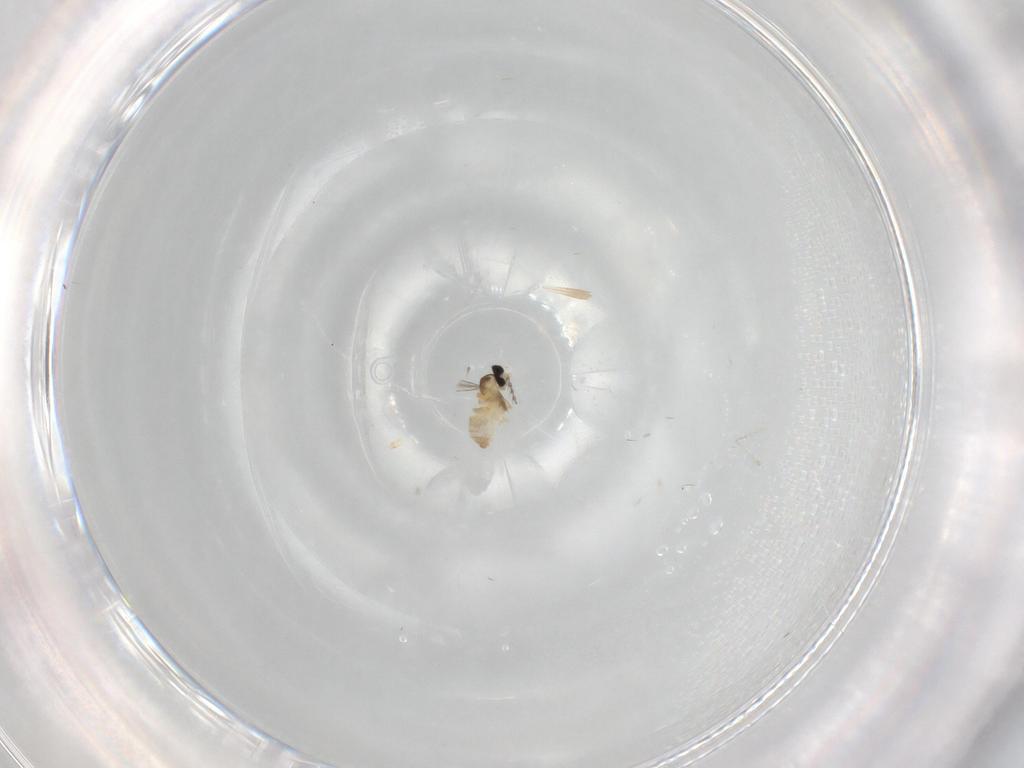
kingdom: Animalia
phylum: Arthropoda
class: Insecta
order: Diptera
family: Cecidomyiidae
